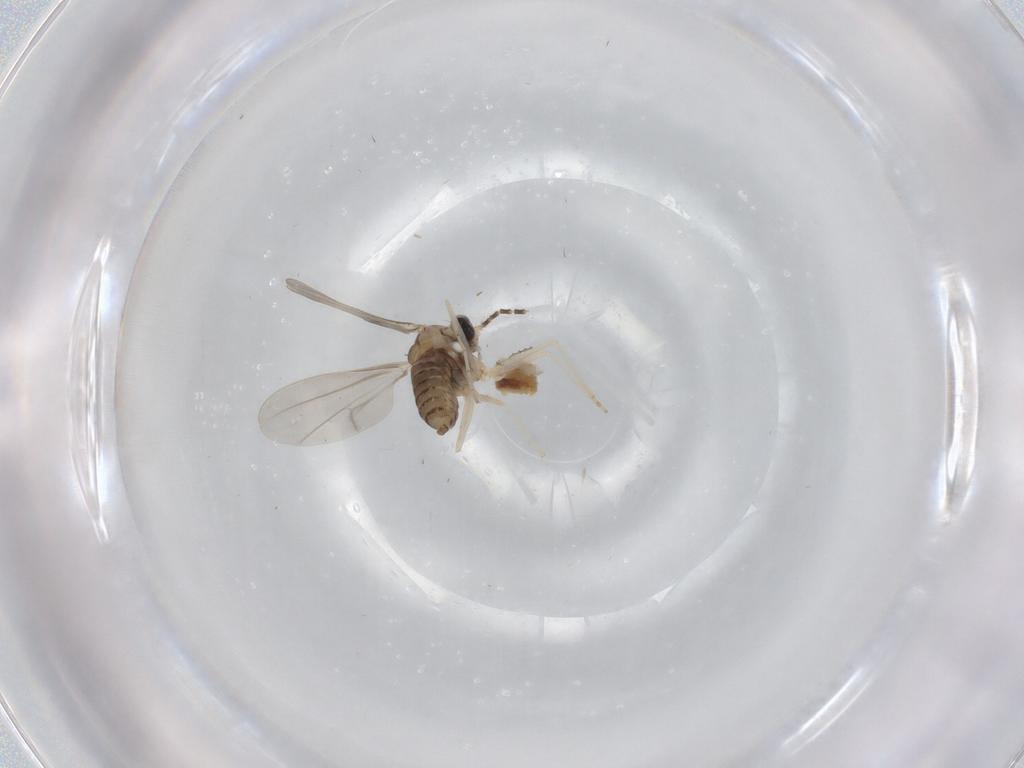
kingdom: Animalia
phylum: Arthropoda
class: Insecta
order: Diptera
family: Cecidomyiidae
